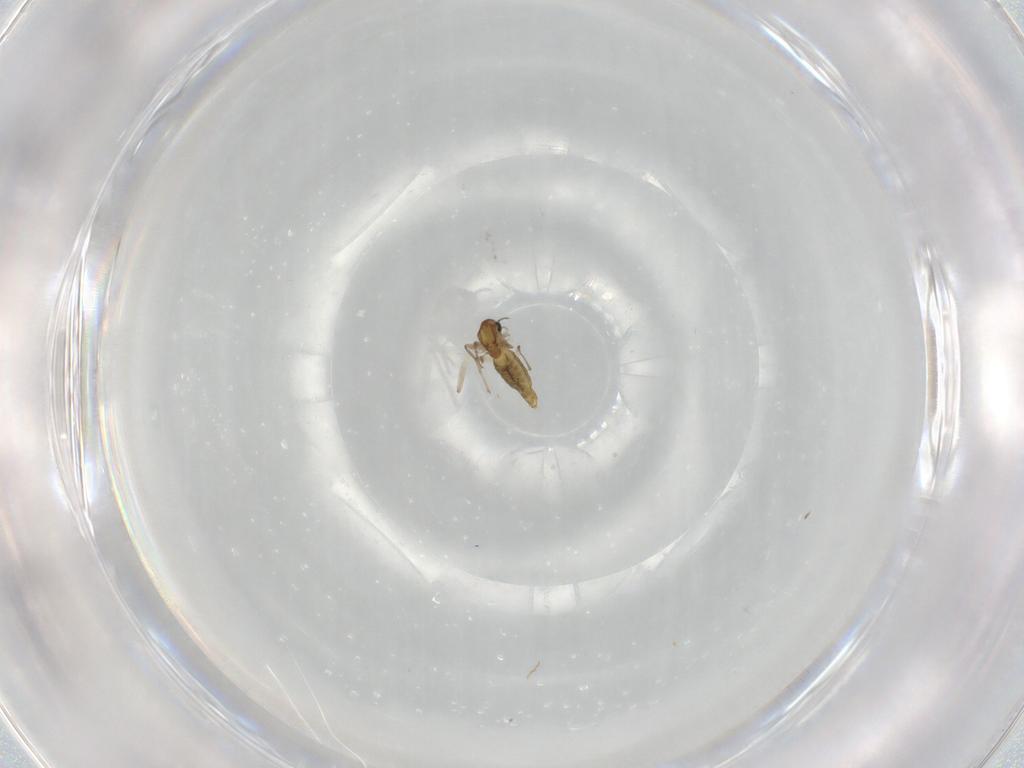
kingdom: Animalia
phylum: Arthropoda
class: Insecta
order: Diptera
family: Chironomidae
